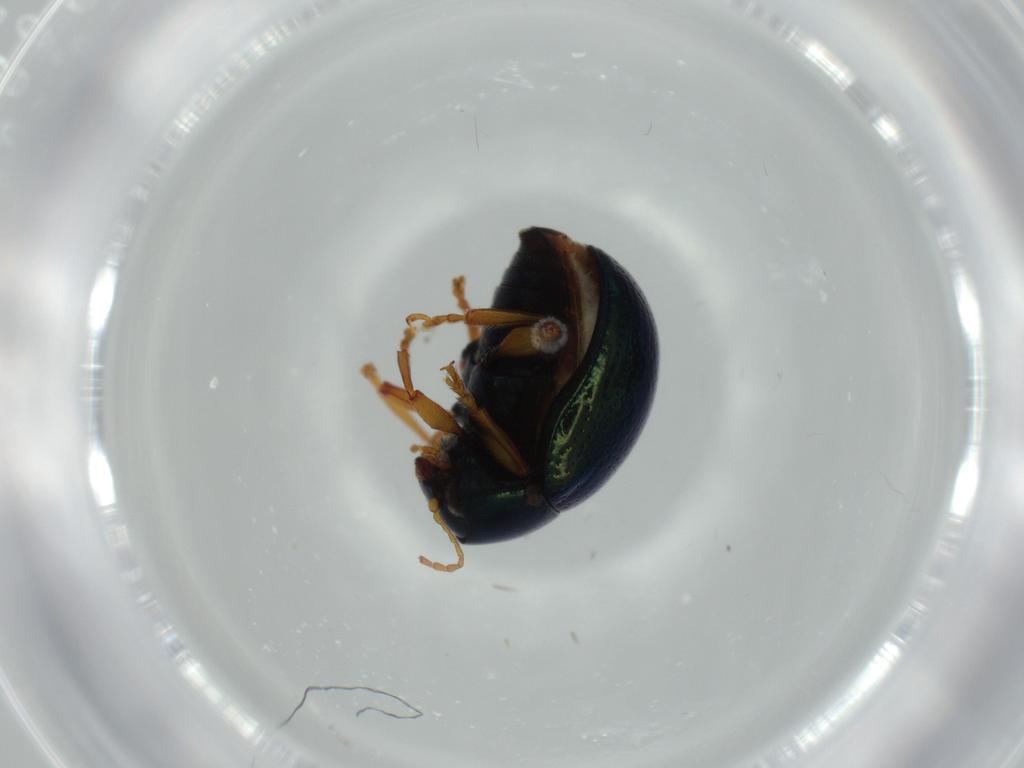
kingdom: Animalia
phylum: Arthropoda
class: Insecta
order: Coleoptera
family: Chrysomelidae
